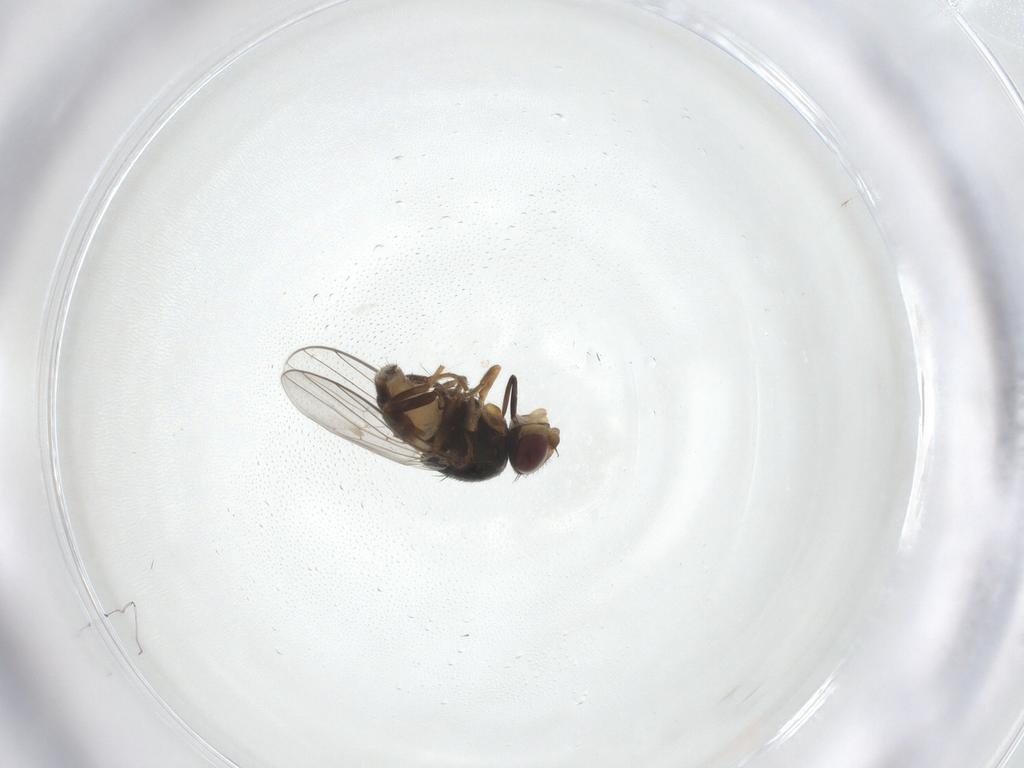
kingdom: Animalia
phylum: Arthropoda
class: Insecta
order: Diptera
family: Chloropidae
